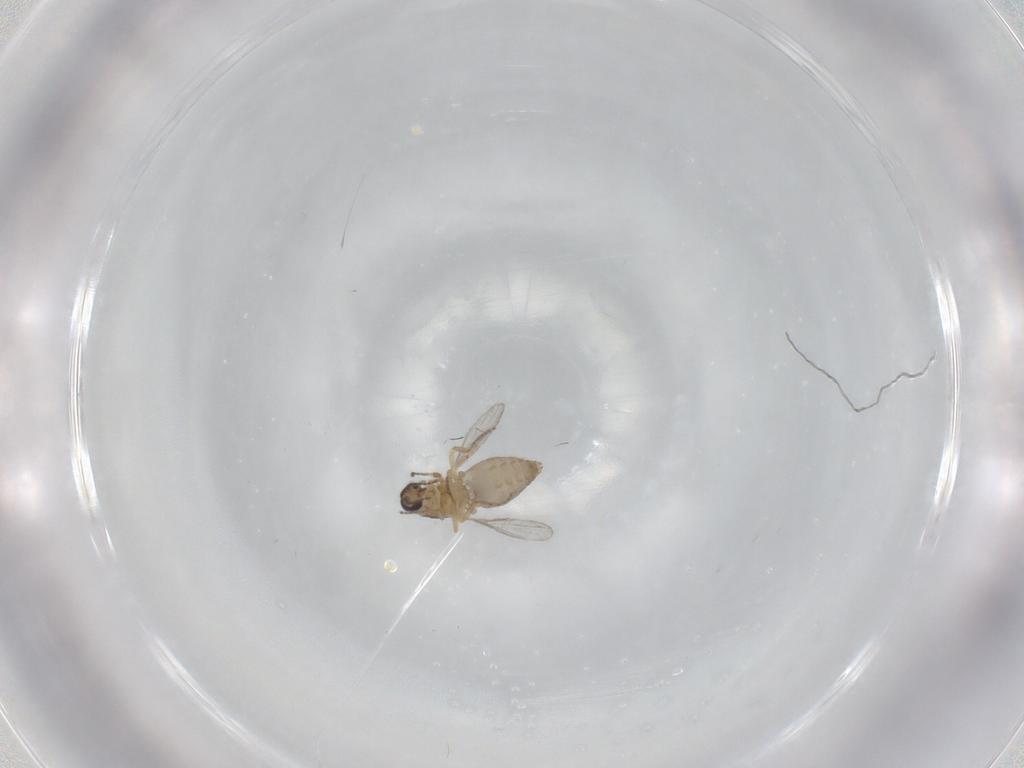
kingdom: Animalia
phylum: Arthropoda
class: Insecta
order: Diptera
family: Ceratopogonidae
